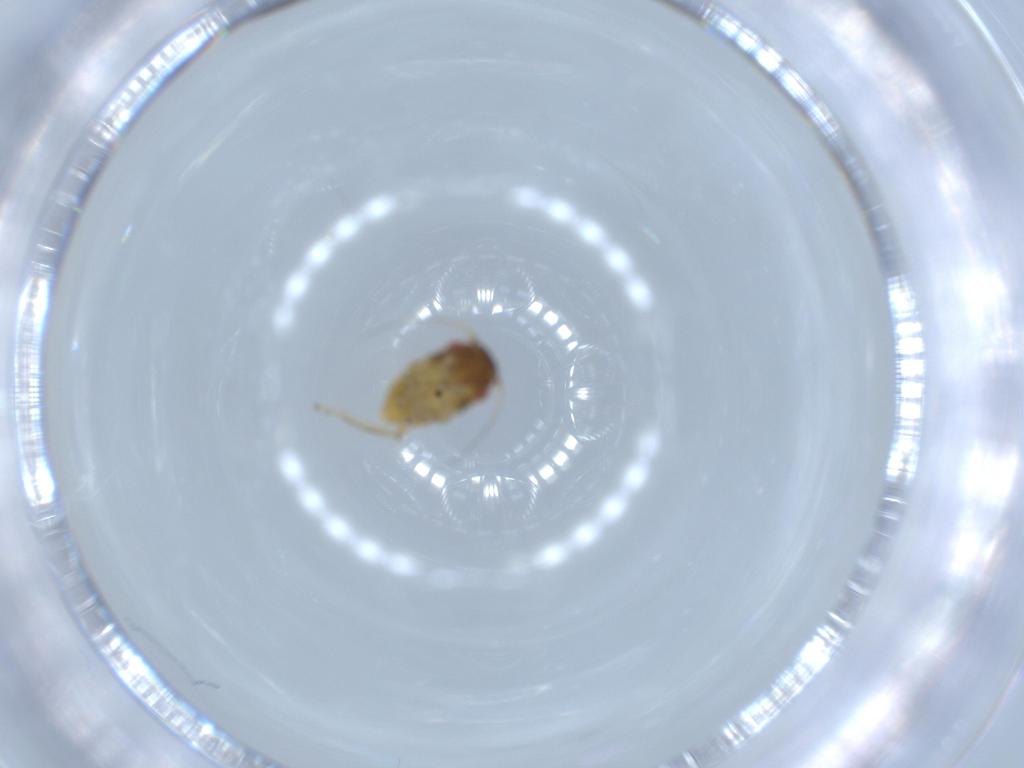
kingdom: Animalia
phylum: Arthropoda
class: Insecta
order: Hemiptera
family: Cicadellidae
